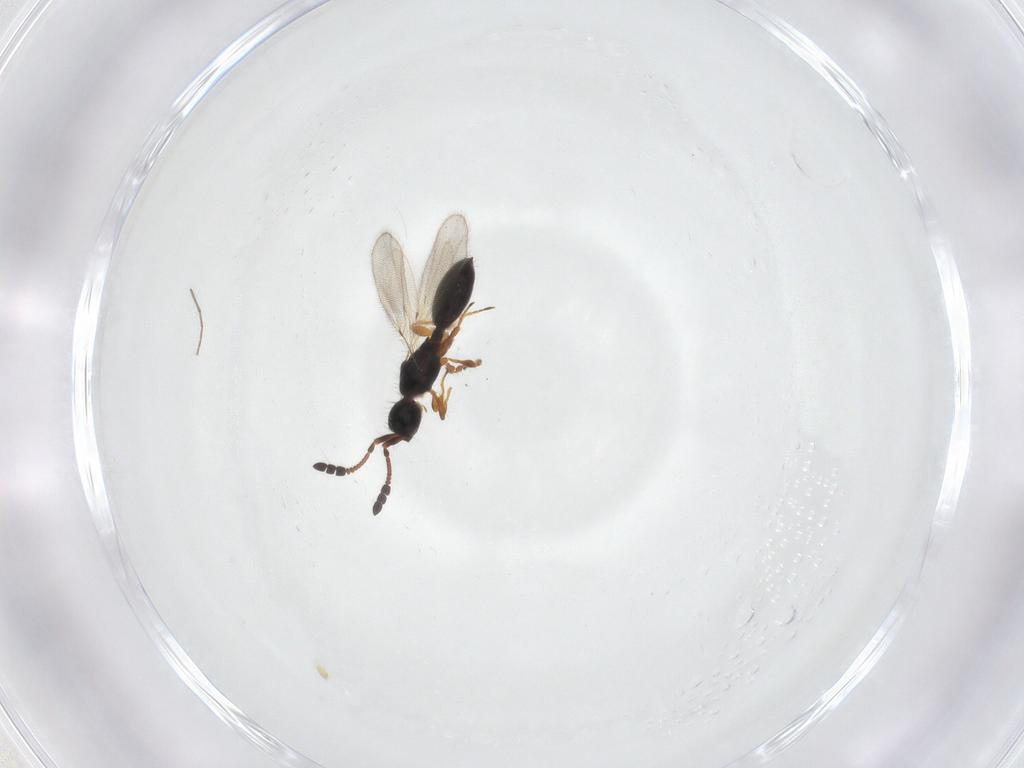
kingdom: Animalia
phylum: Arthropoda
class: Insecta
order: Hymenoptera
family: Diapriidae
